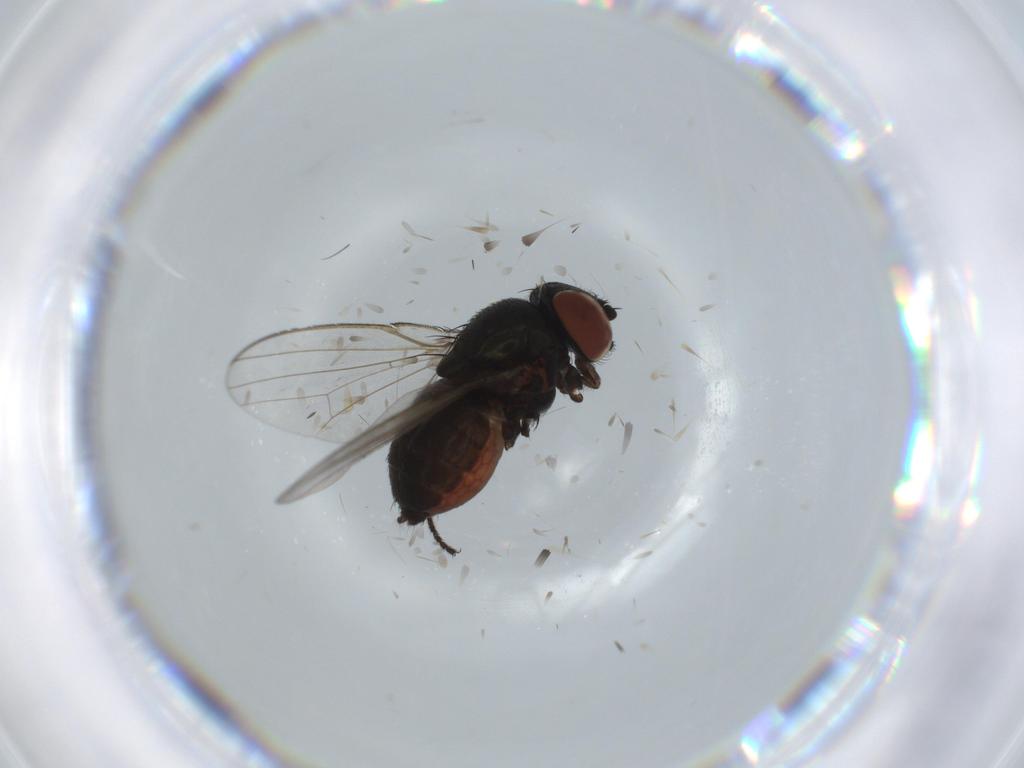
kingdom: Animalia
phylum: Arthropoda
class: Insecta
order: Diptera
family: Milichiidae
